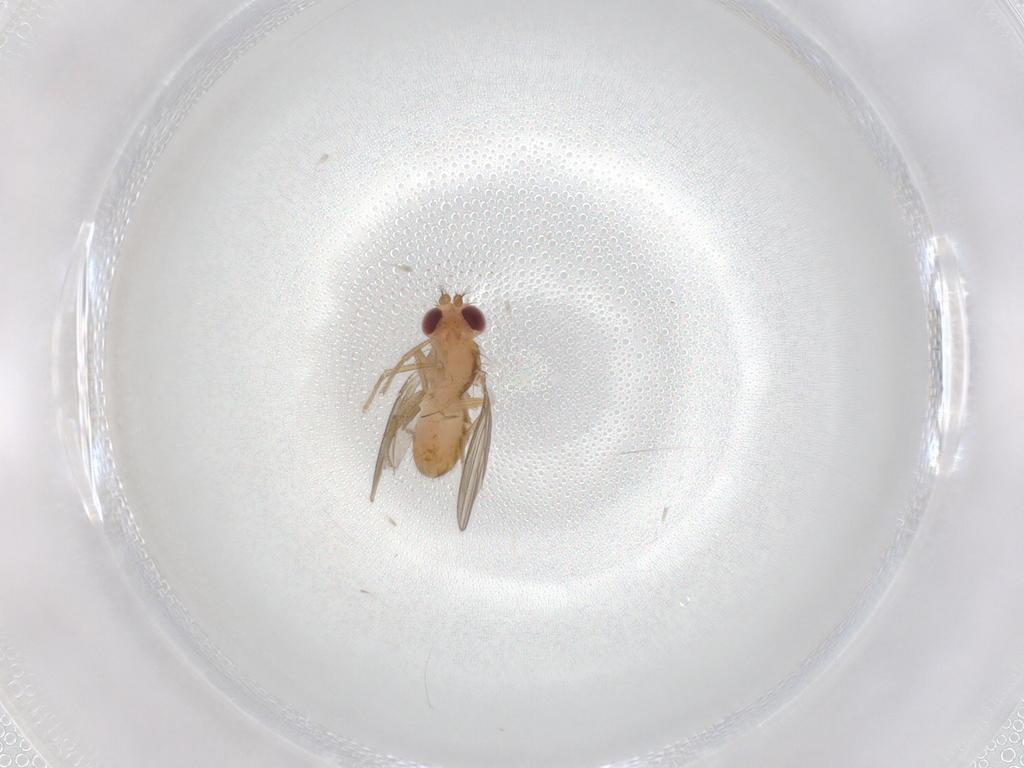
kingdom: Animalia
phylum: Arthropoda
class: Insecta
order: Diptera
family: Drosophilidae
